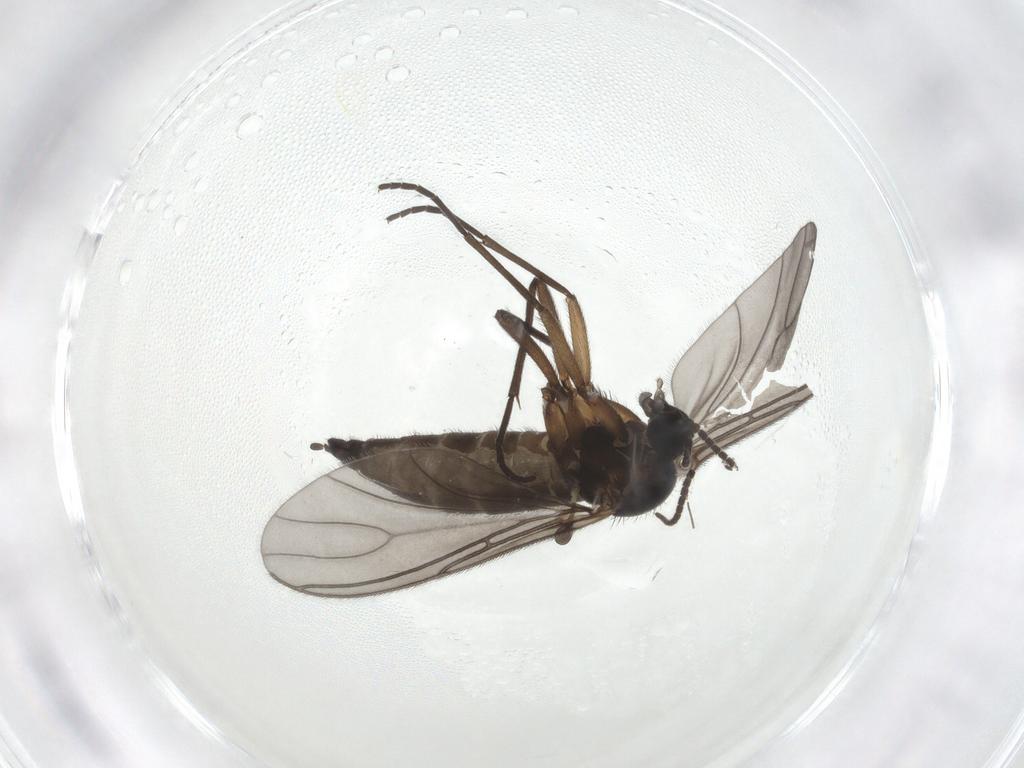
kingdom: Animalia
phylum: Arthropoda
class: Insecta
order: Diptera
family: Sciaridae
